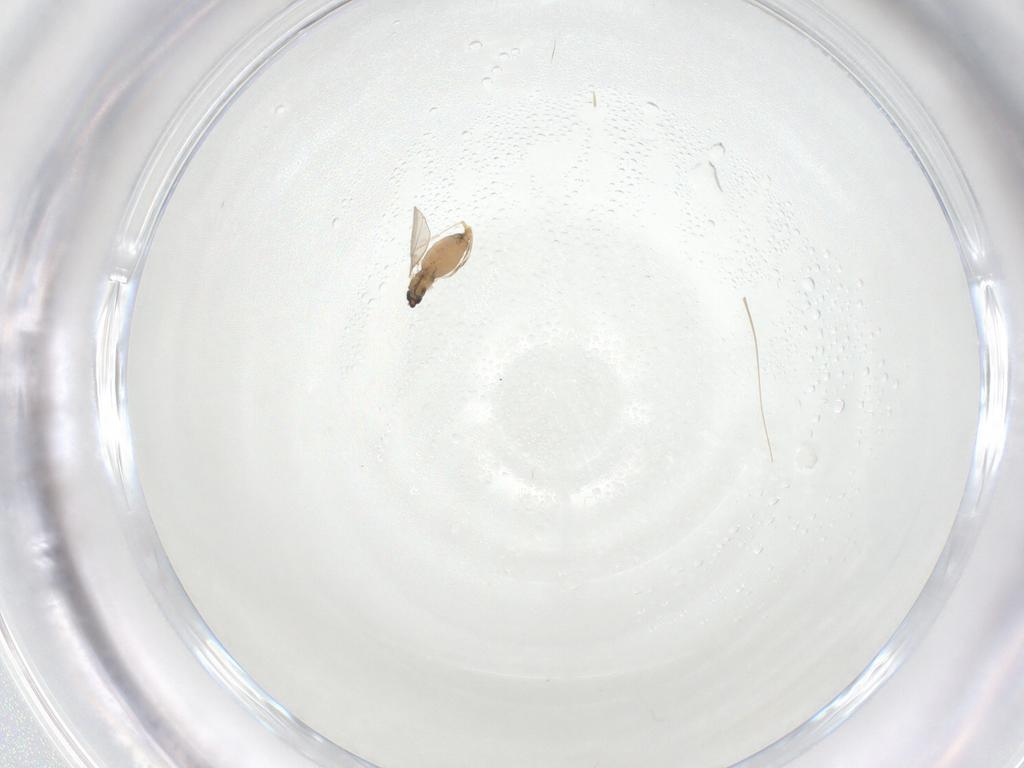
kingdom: Animalia
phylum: Arthropoda
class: Insecta
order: Diptera
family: Cecidomyiidae
